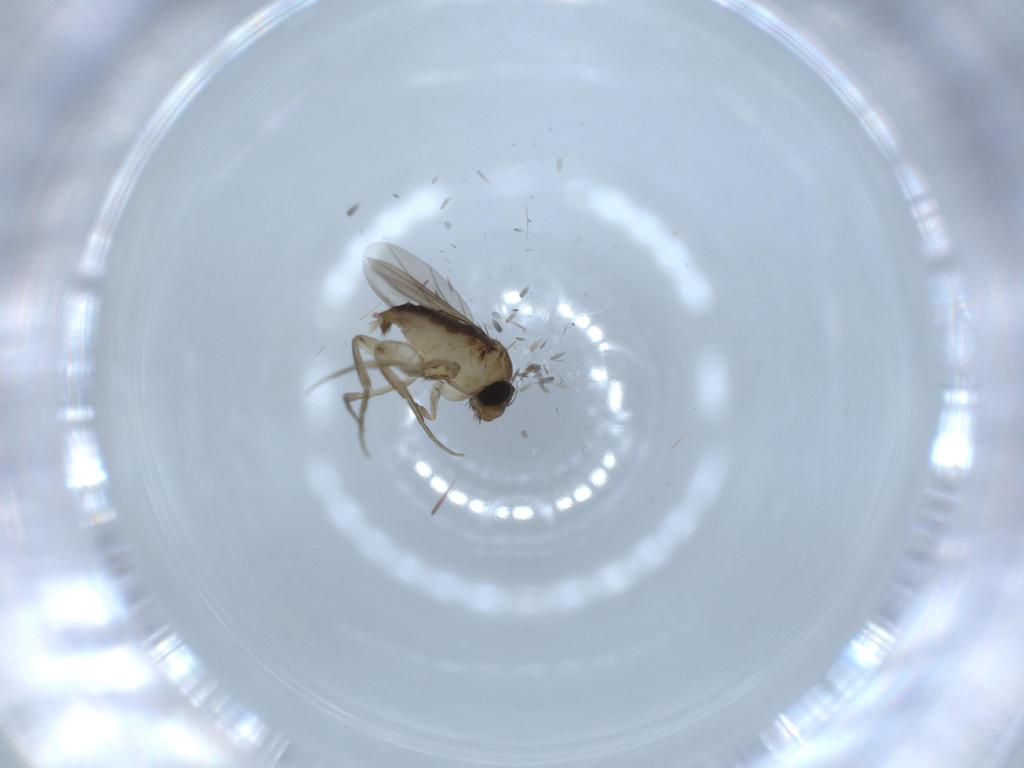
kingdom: Animalia
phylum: Arthropoda
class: Insecta
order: Diptera
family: Phoridae
